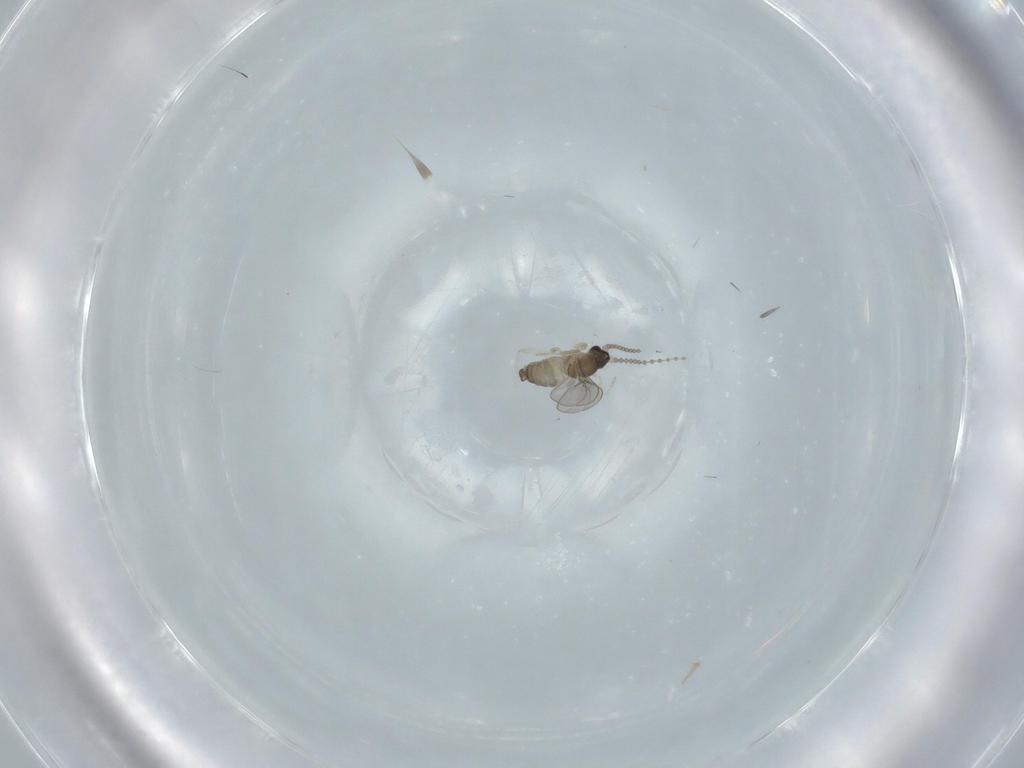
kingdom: Animalia
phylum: Arthropoda
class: Insecta
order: Diptera
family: Cecidomyiidae
